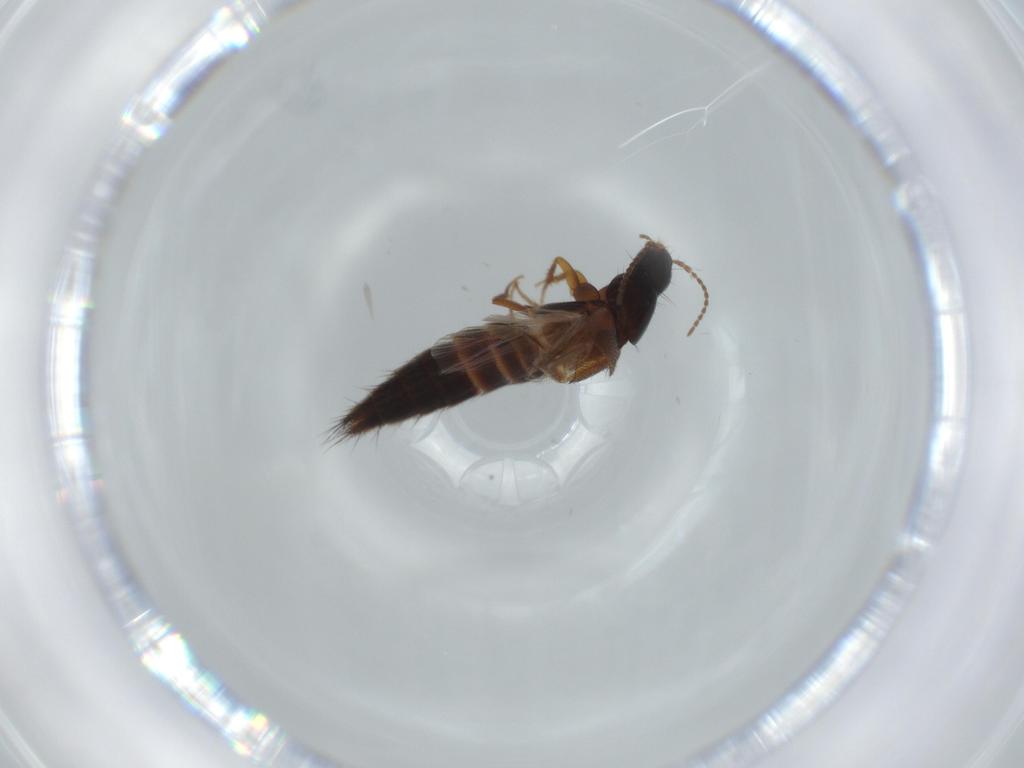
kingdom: Animalia
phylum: Arthropoda
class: Insecta
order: Coleoptera
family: Staphylinidae
